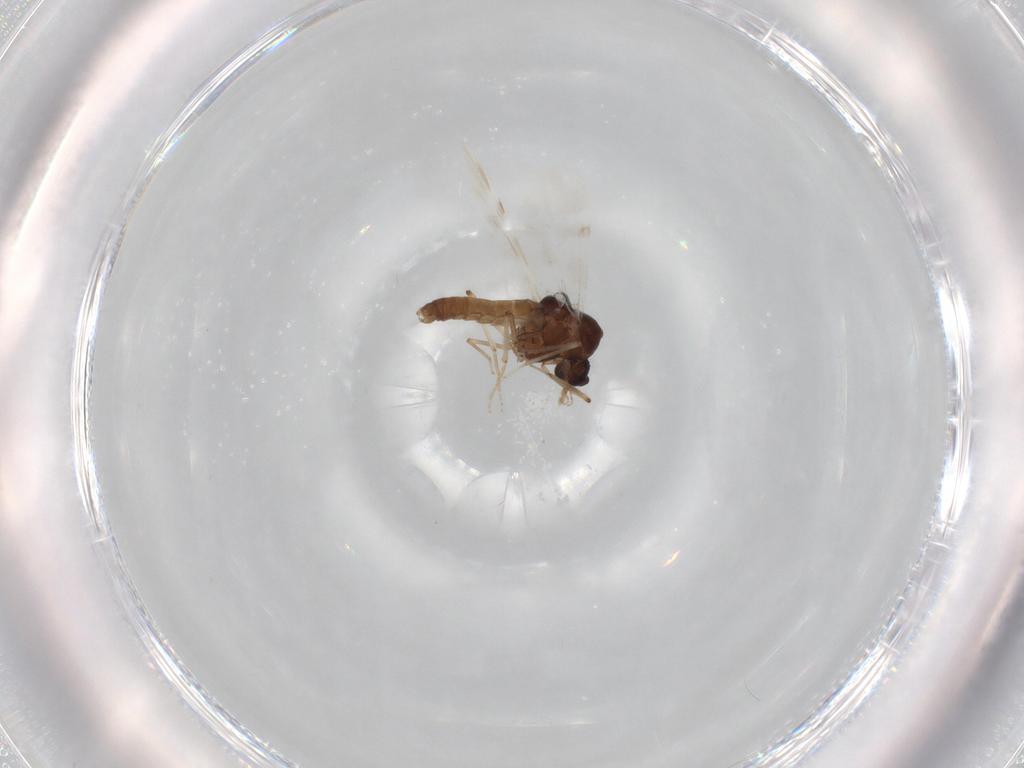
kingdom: Animalia
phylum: Arthropoda
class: Insecta
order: Diptera
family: Ceratopogonidae
